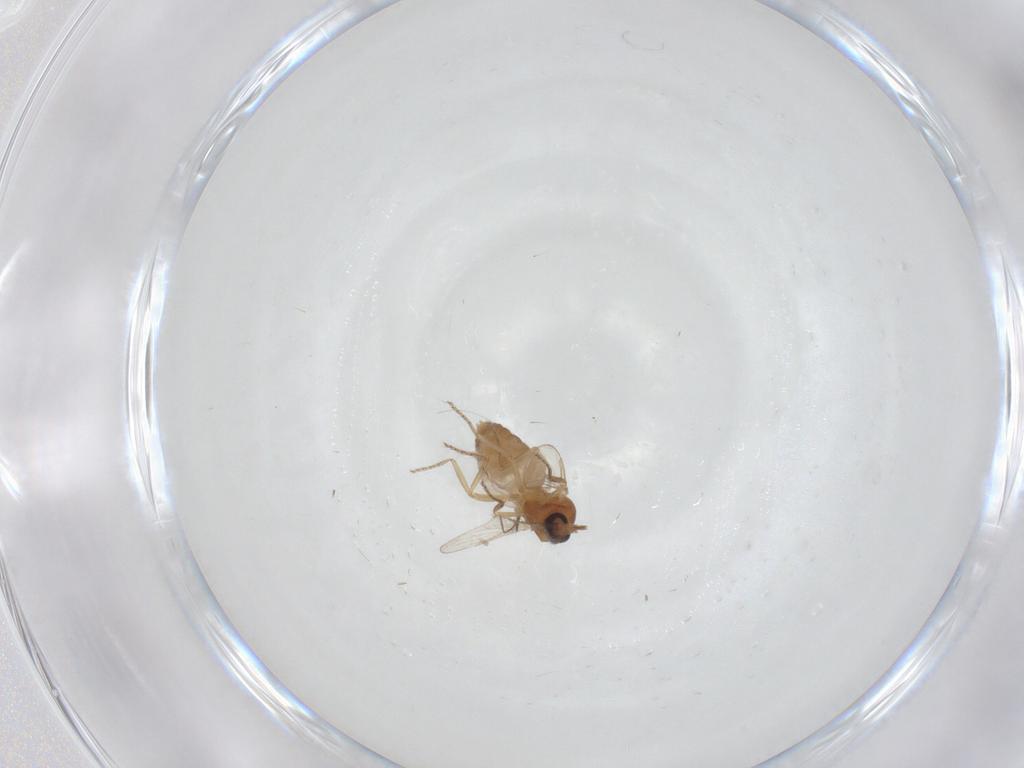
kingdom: Animalia
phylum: Arthropoda
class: Insecta
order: Diptera
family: Ceratopogonidae
